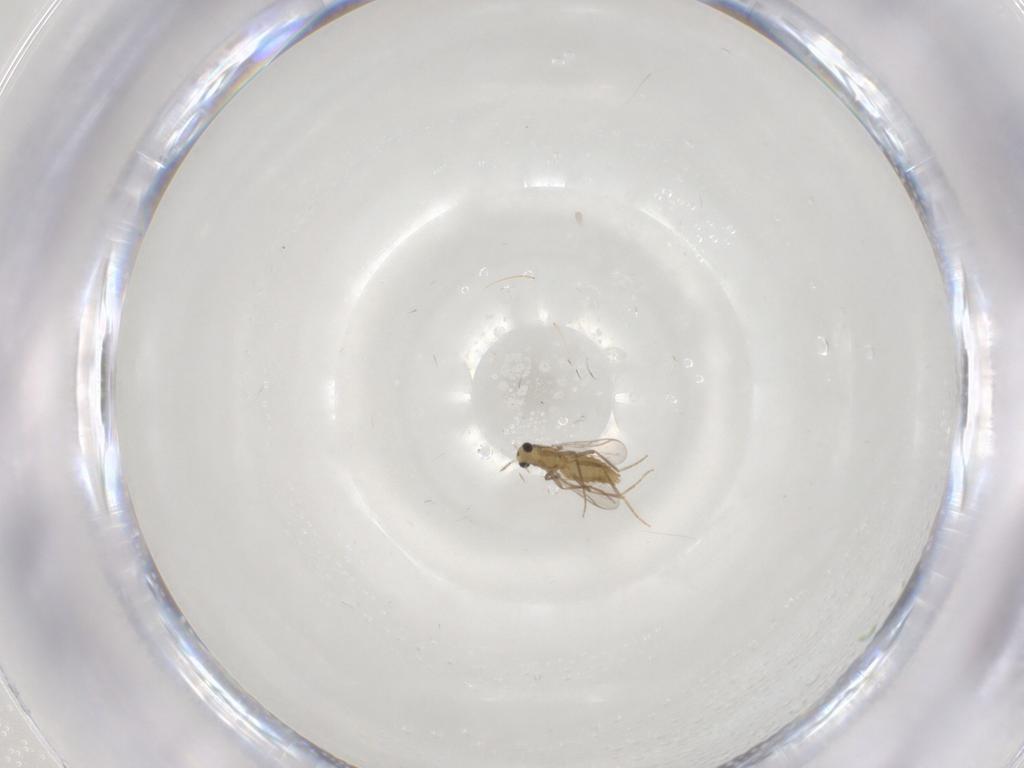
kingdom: Animalia
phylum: Arthropoda
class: Insecta
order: Diptera
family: Chironomidae
